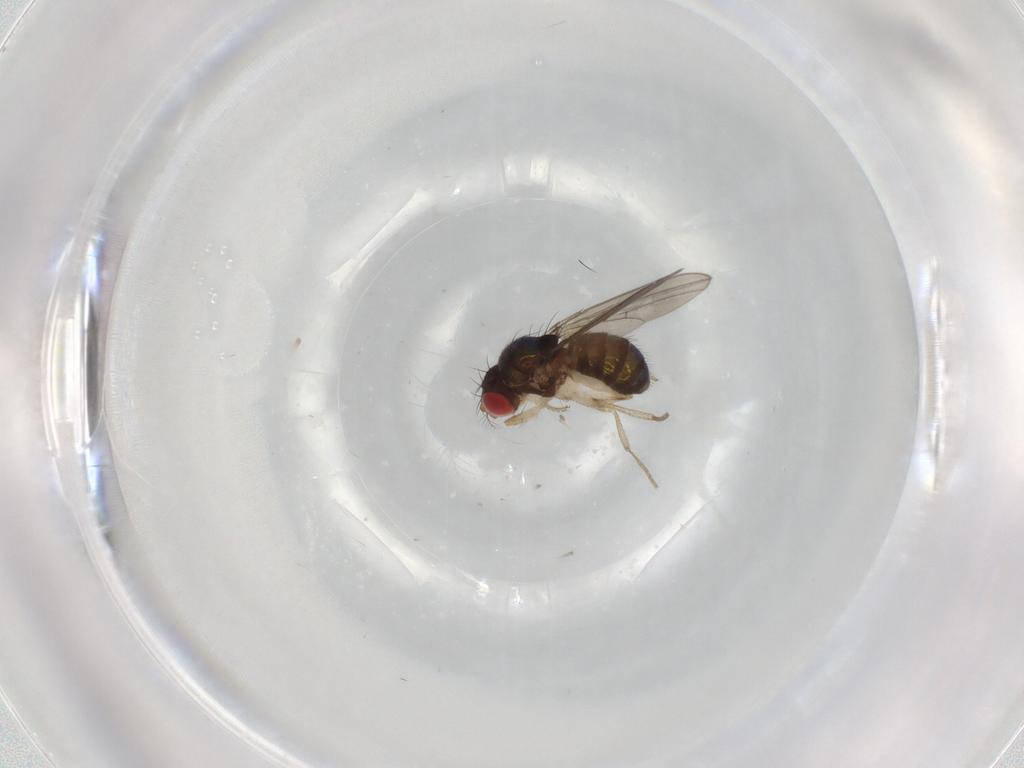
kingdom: Animalia
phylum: Arthropoda
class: Insecta
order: Diptera
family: Drosophilidae
